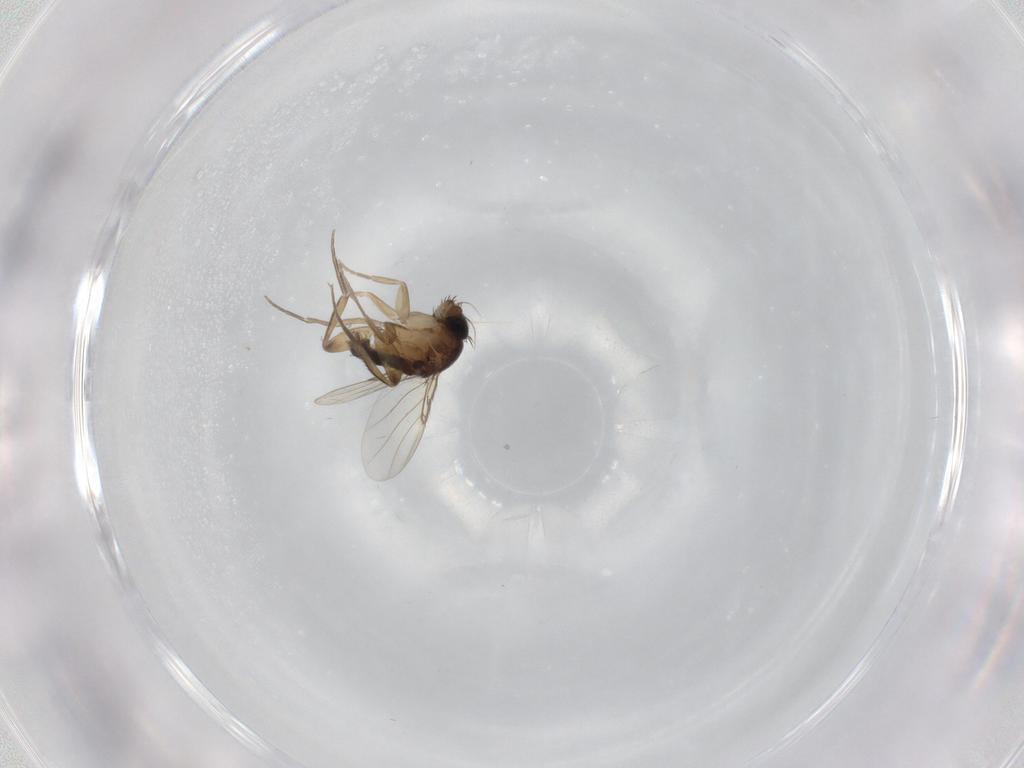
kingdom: Animalia
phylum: Arthropoda
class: Insecta
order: Diptera
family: Phoridae
